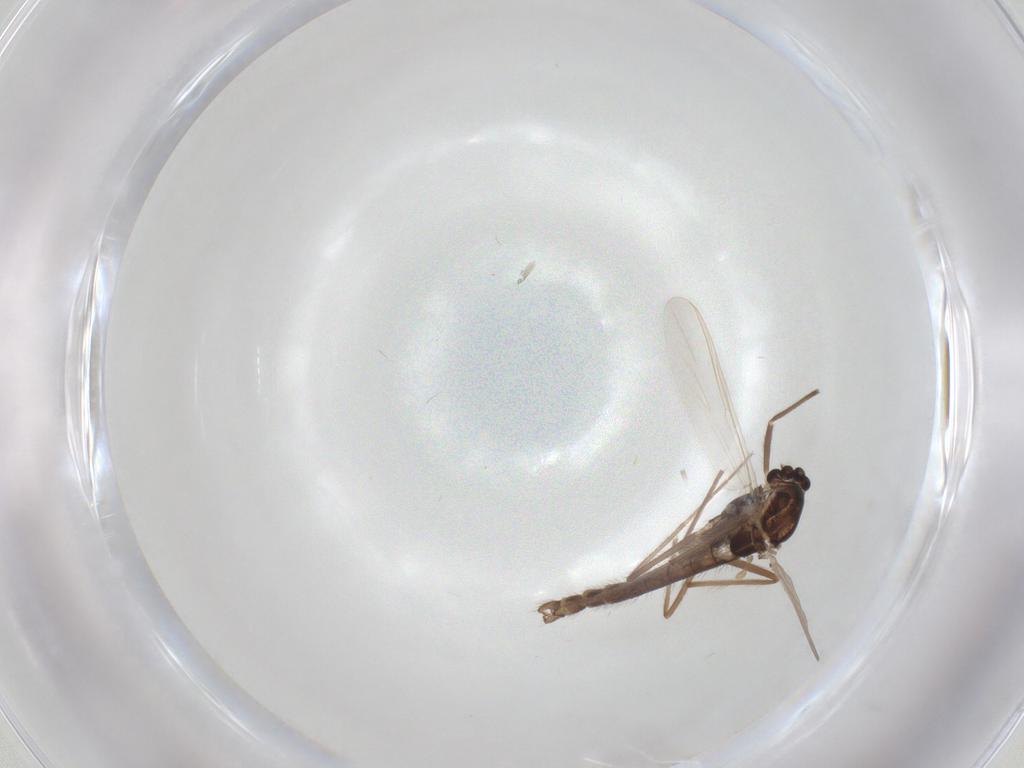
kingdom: Animalia
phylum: Arthropoda
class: Insecta
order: Diptera
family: Chironomidae
